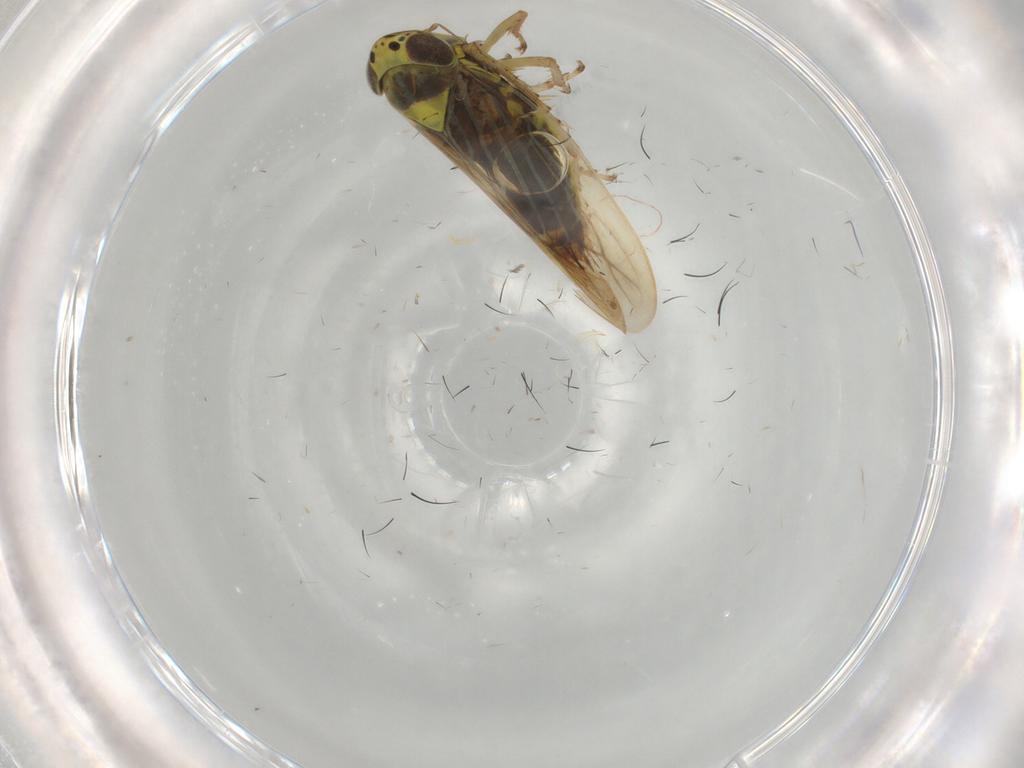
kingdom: Animalia
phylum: Arthropoda
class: Insecta
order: Hemiptera
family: Cicadellidae
